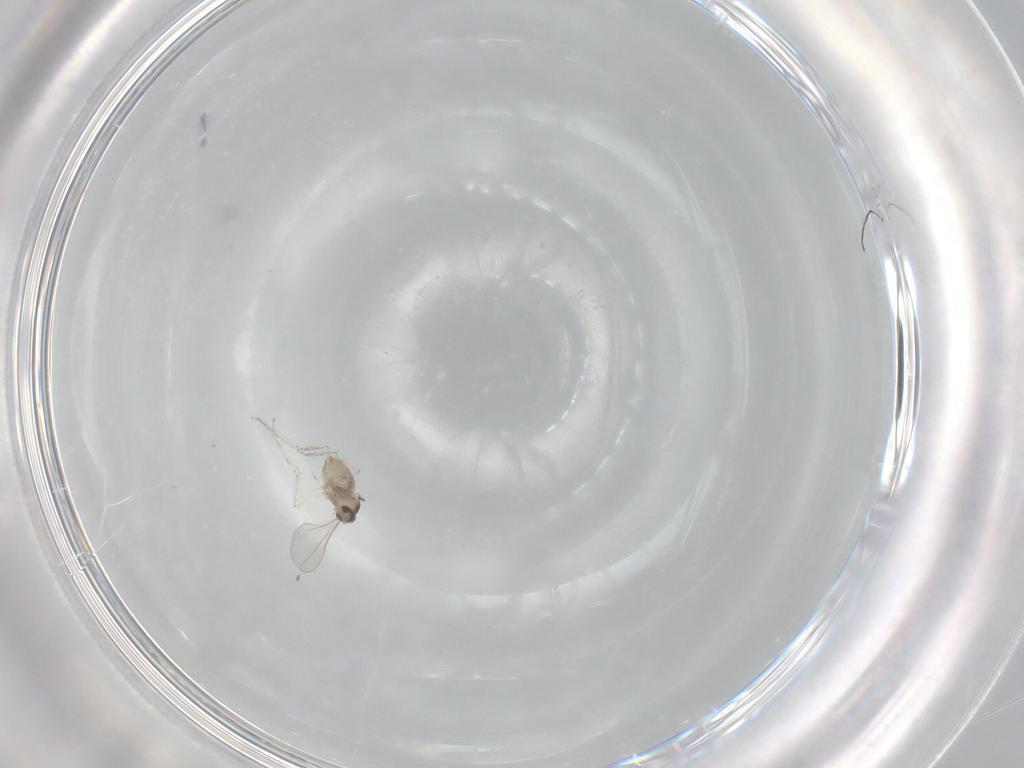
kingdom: Animalia
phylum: Arthropoda
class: Insecta
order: Diptera
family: Cecidomyiidae
